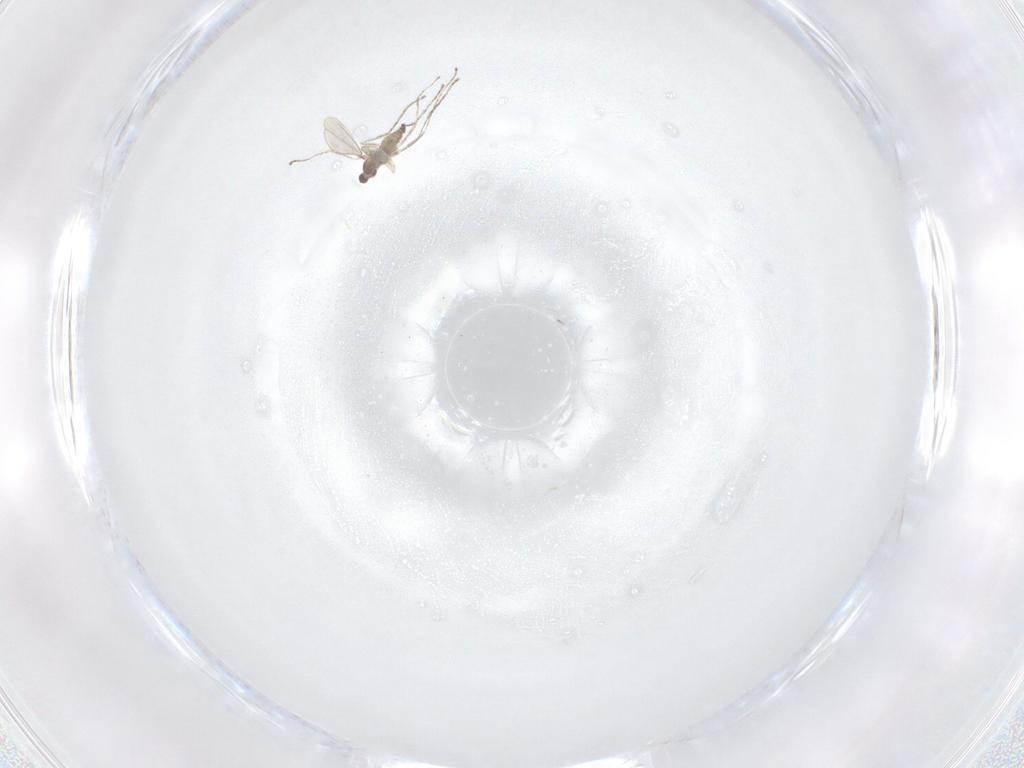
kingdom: Animalia
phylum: Arthropoda
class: Insecta
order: Diptera
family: Cecidomyiidae
